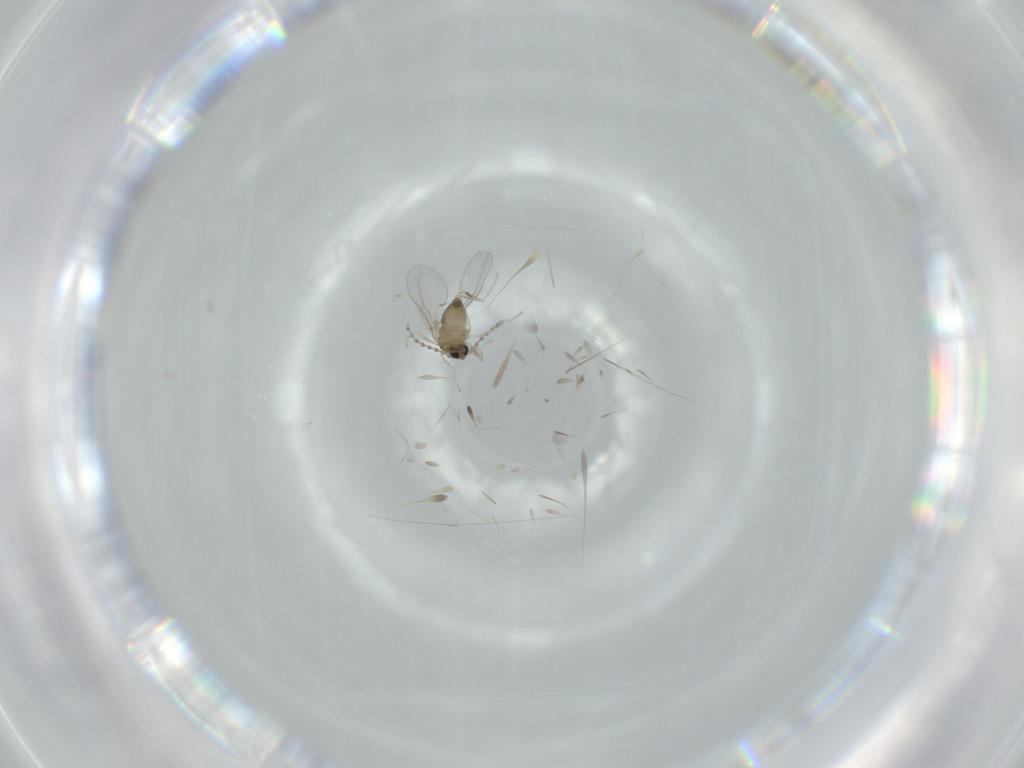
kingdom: Animalia
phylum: Arthropoda
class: Insecta
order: Diptera
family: Cecidomyiidae
